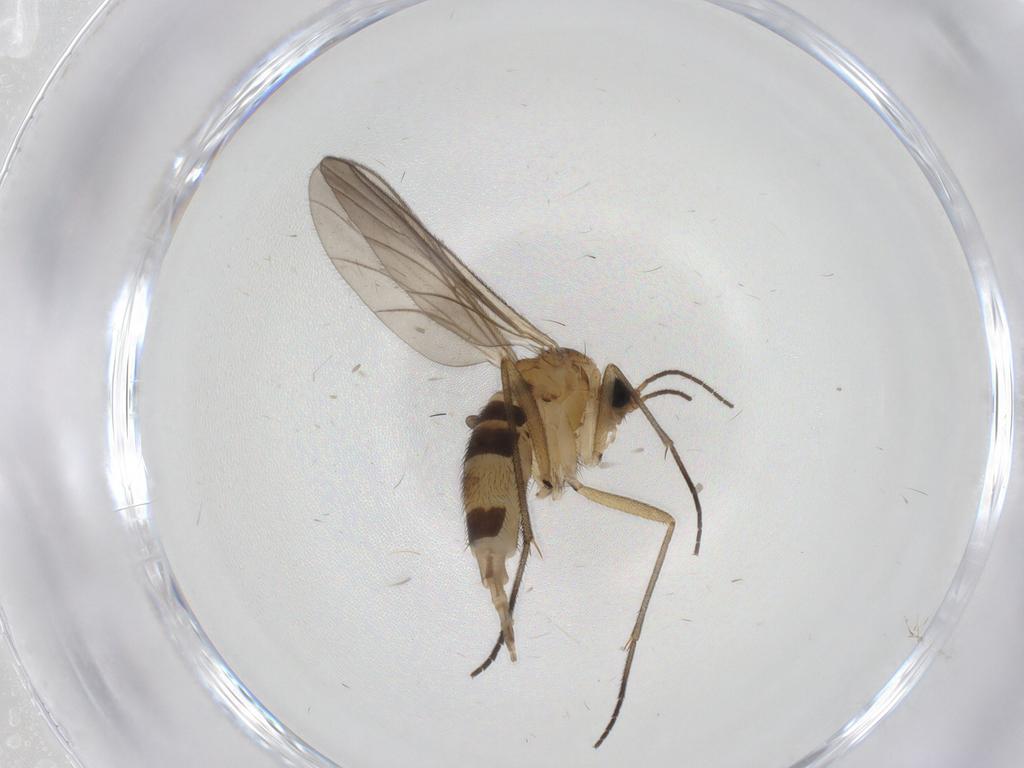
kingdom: Animalia
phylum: Arthropoda
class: Insecta
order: Diptera
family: Sciaridae
